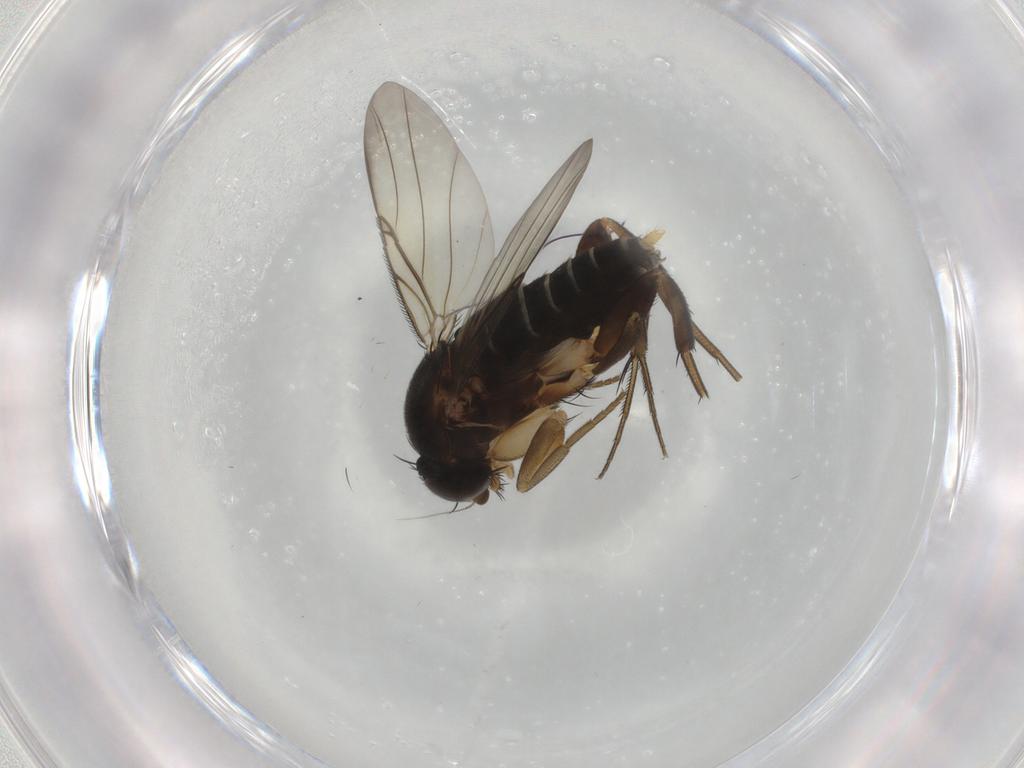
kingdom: Animalia
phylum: Arthropoda
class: Insecta
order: Diptera
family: Phoridae
